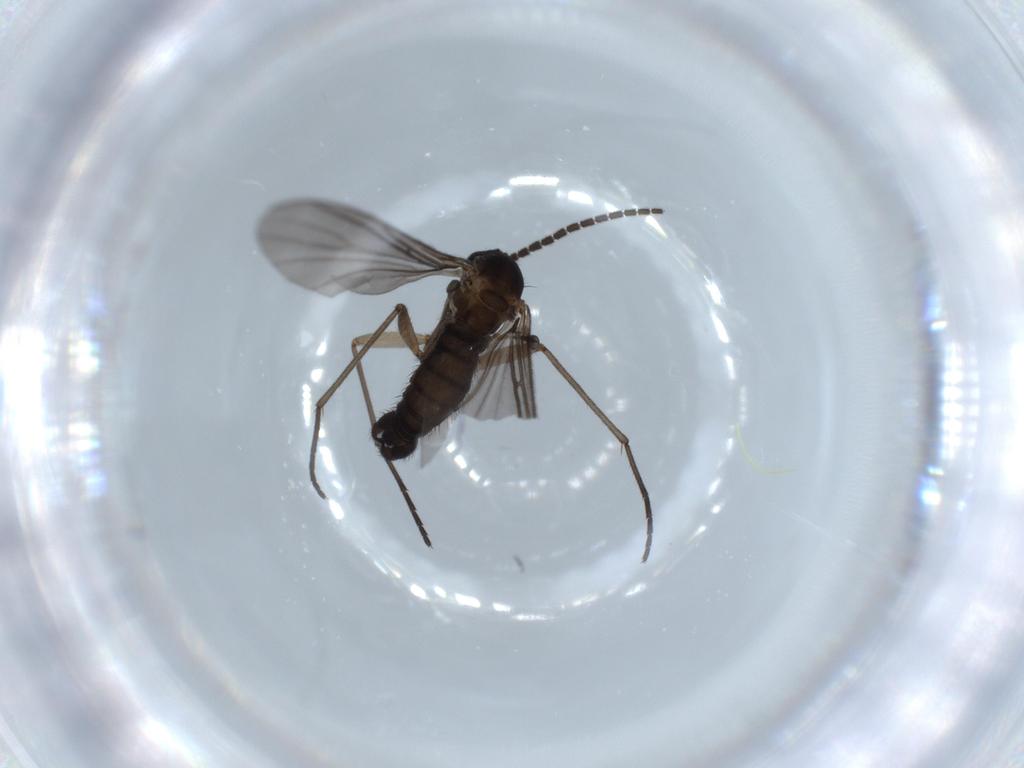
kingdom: Animalia
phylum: Arthropoda
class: Insecta
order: Diptera
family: Sciaridae
